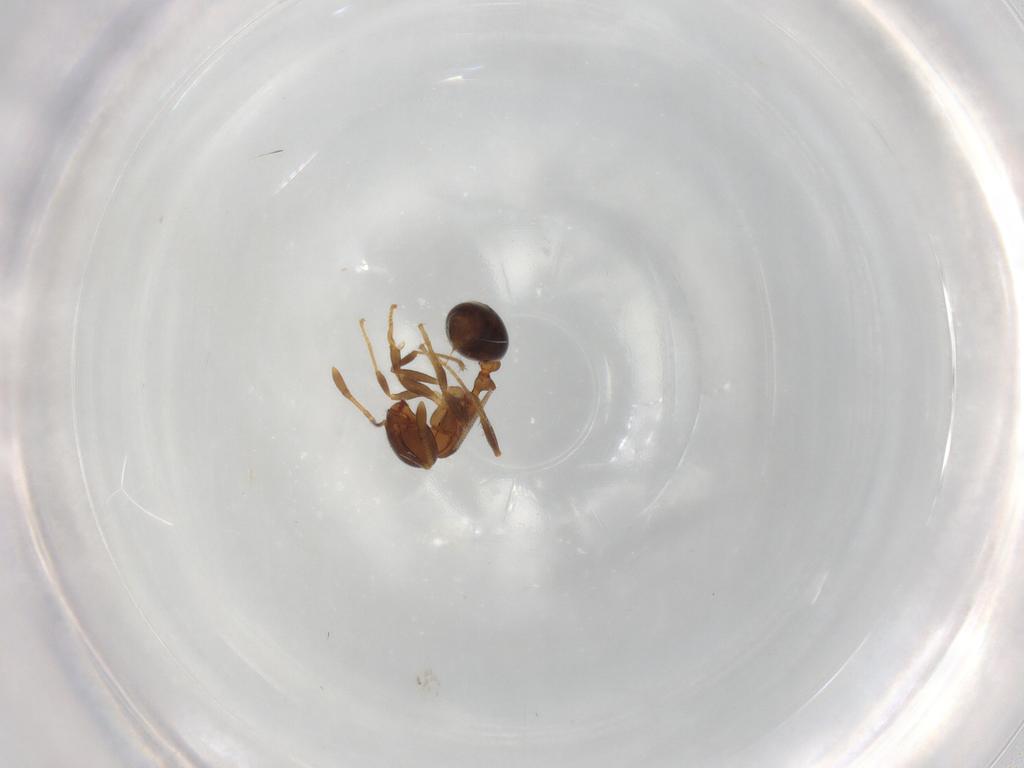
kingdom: Animalia
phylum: Arthropoda
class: Insecta
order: Diptera
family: Dolichopodidae
